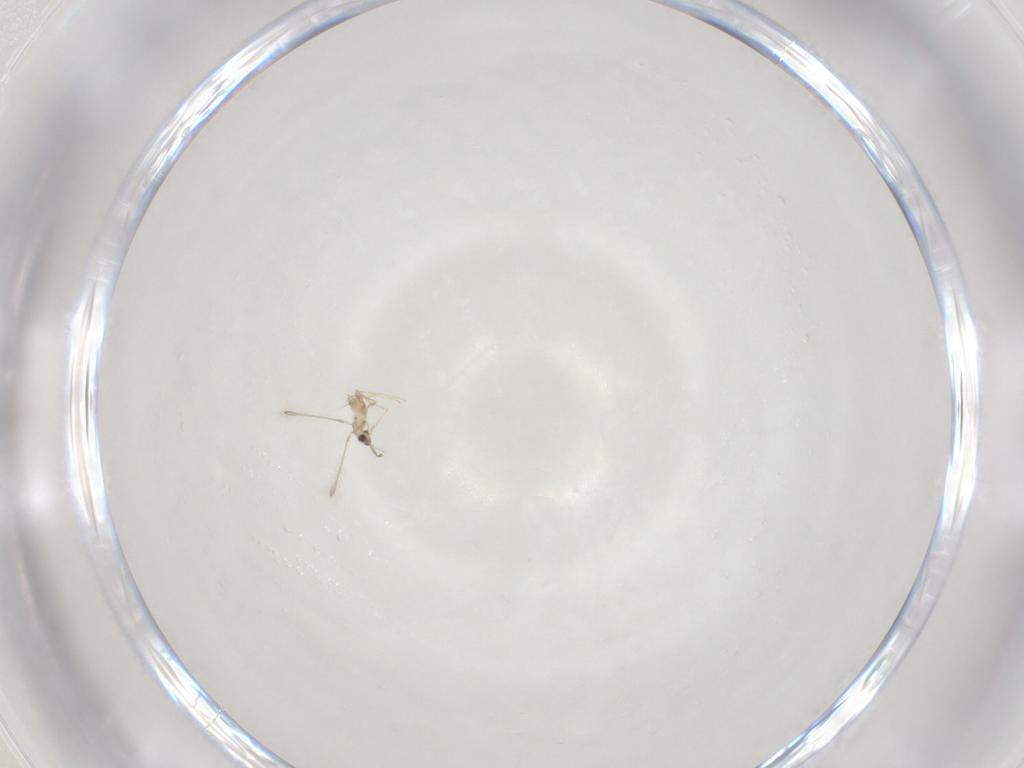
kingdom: Animalia
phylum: Arthropoda
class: Insecta
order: Hymenoptera
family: Mymaridae
